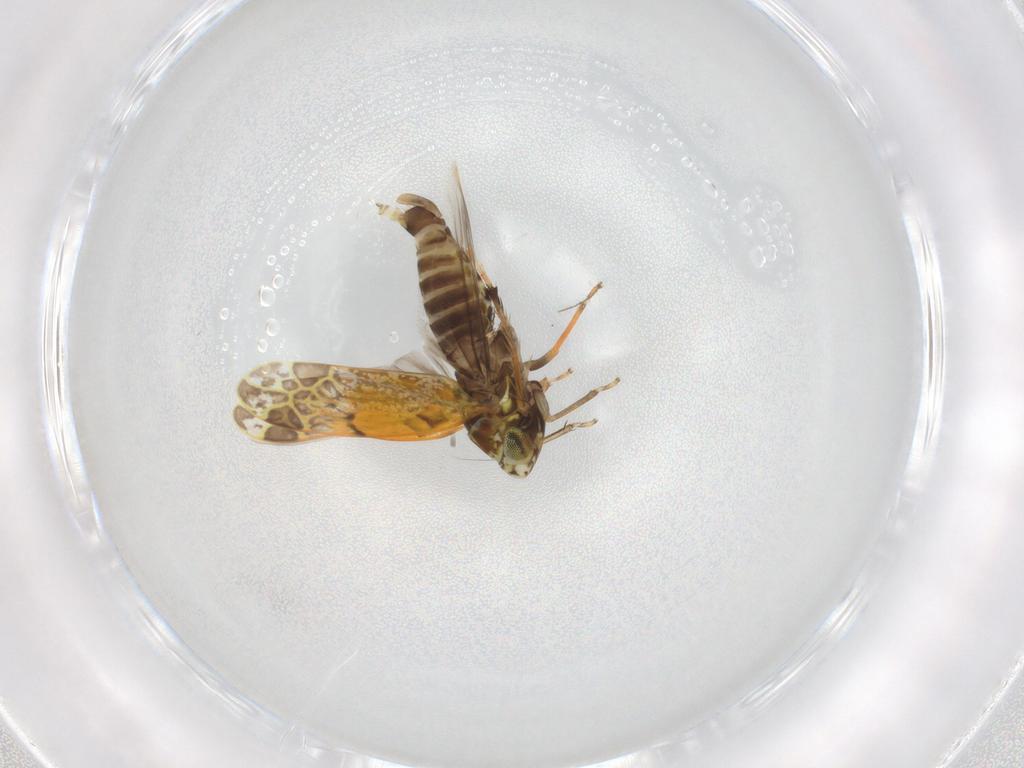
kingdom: Animalia
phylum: Arthropoda
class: Insecta
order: Hemiptera
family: Cicadellidae
